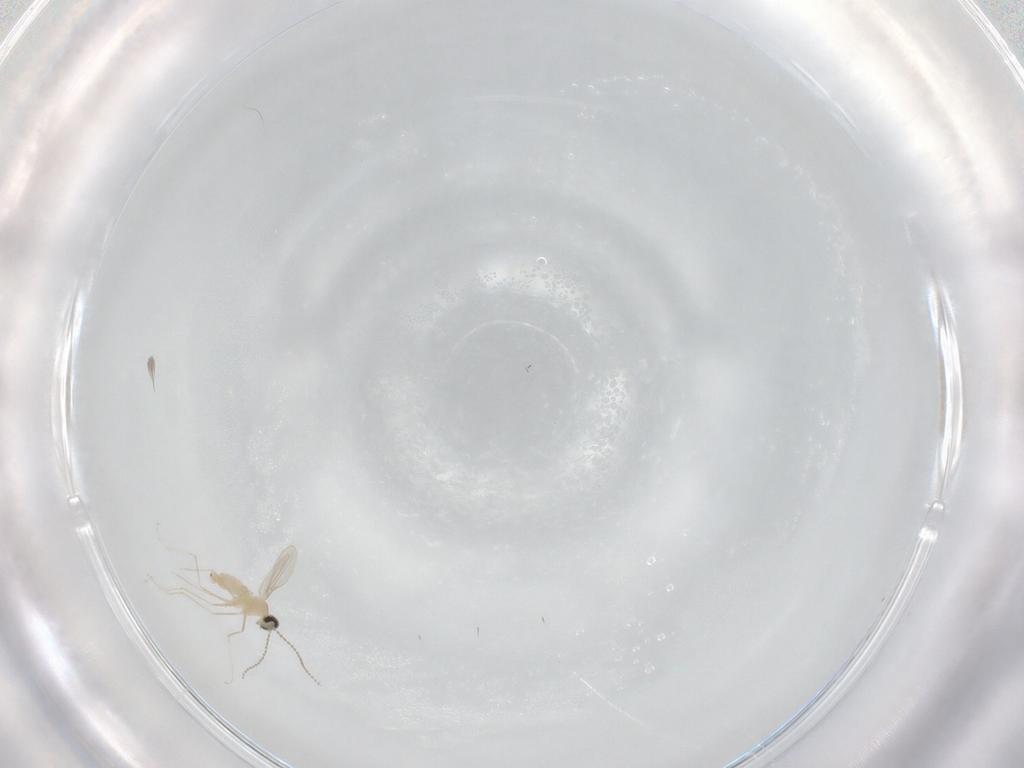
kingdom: Animalia
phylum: Arthropoda
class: Insecta
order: Diptera
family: Cecidomyiidae
